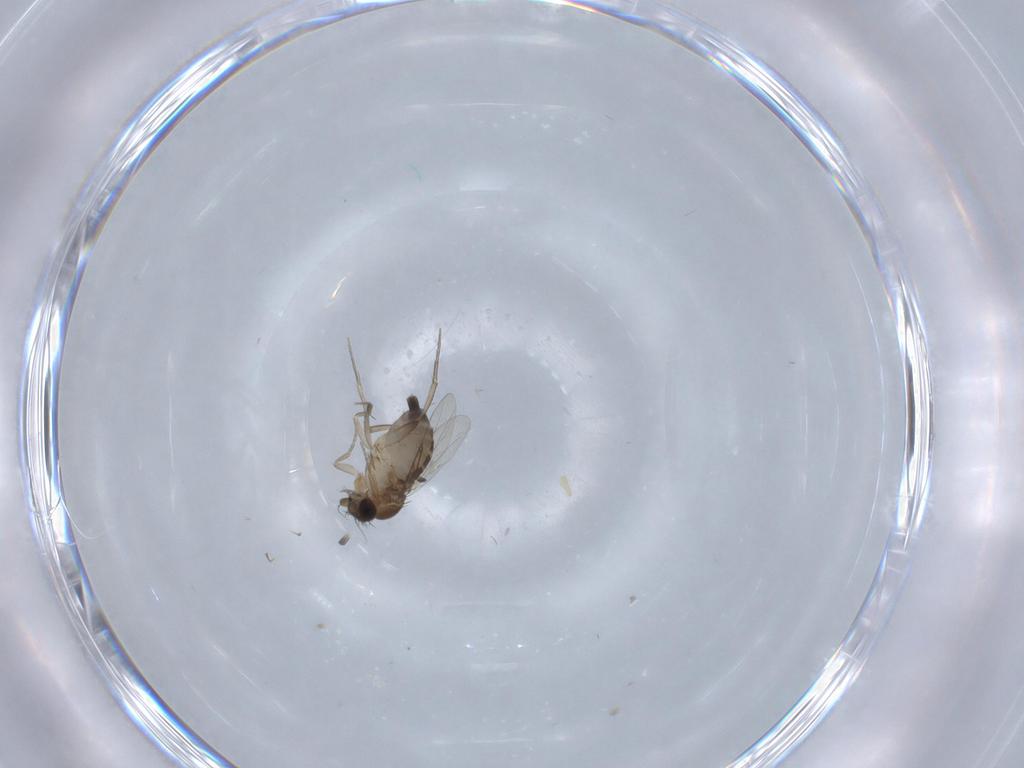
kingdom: Animalia
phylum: Arthropoda
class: Insecta
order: Diptera
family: Phoridae
